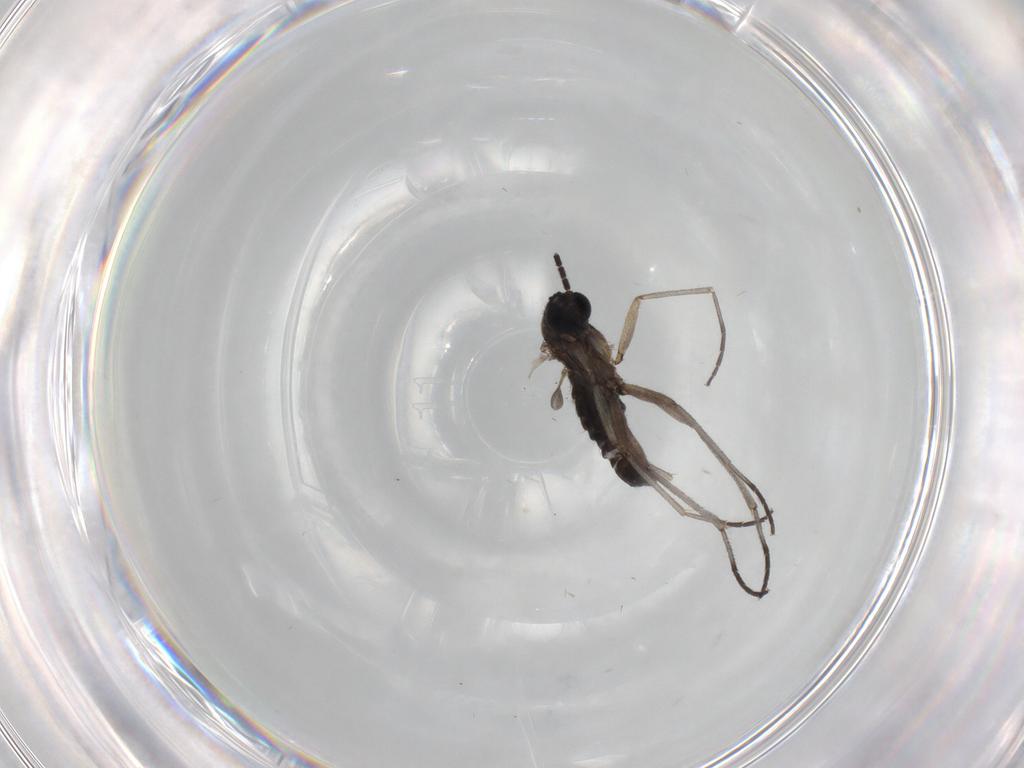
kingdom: Animalia
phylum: Arthropoda
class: Insecta
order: Diptera
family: Sciaridae
